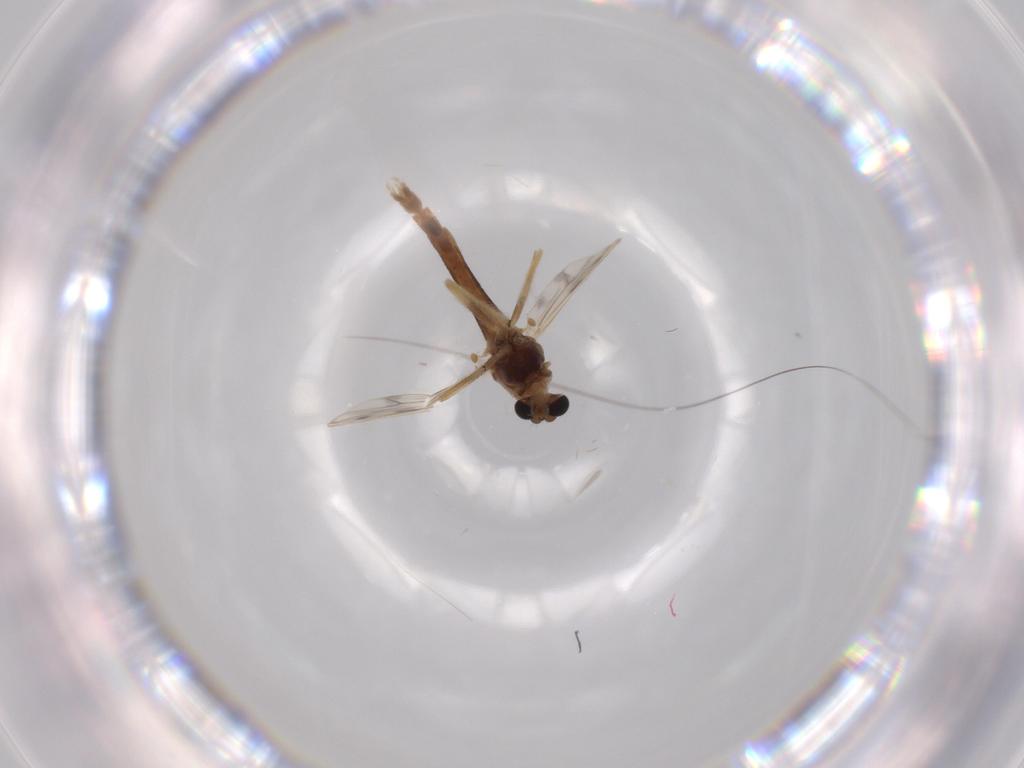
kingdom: Animalia
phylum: Arthropoda
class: Insecta
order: Diptera
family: Chironomidae
